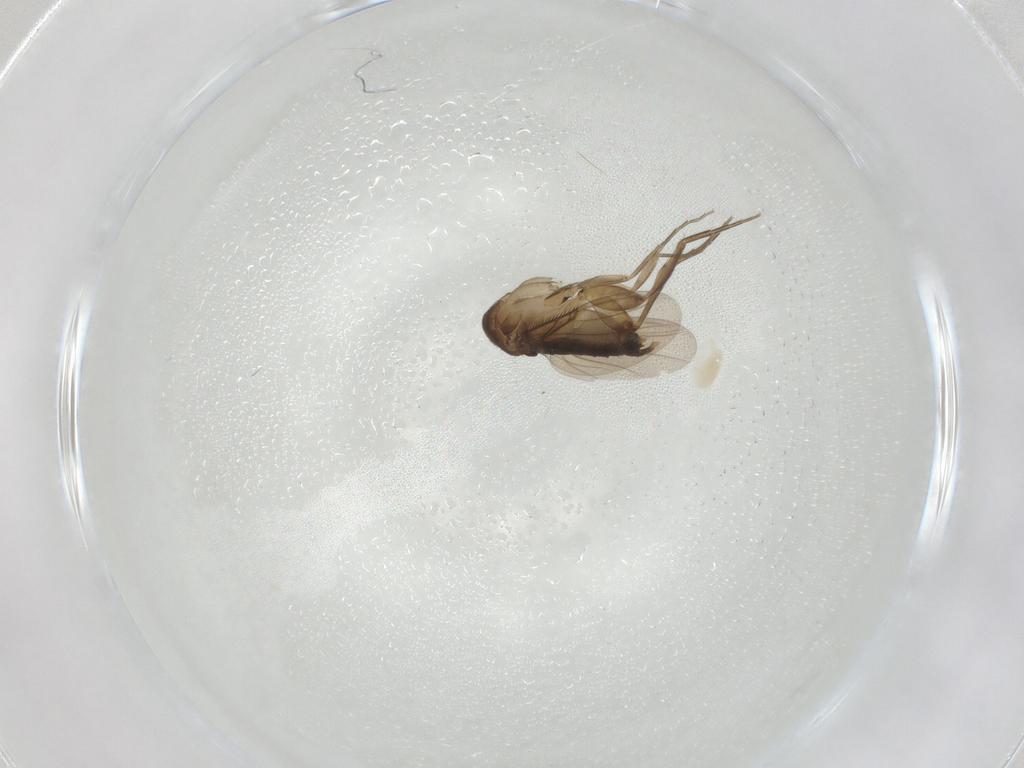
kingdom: Animalia
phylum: Arthropoda
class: Insecta
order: Diptera
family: Phoridae
